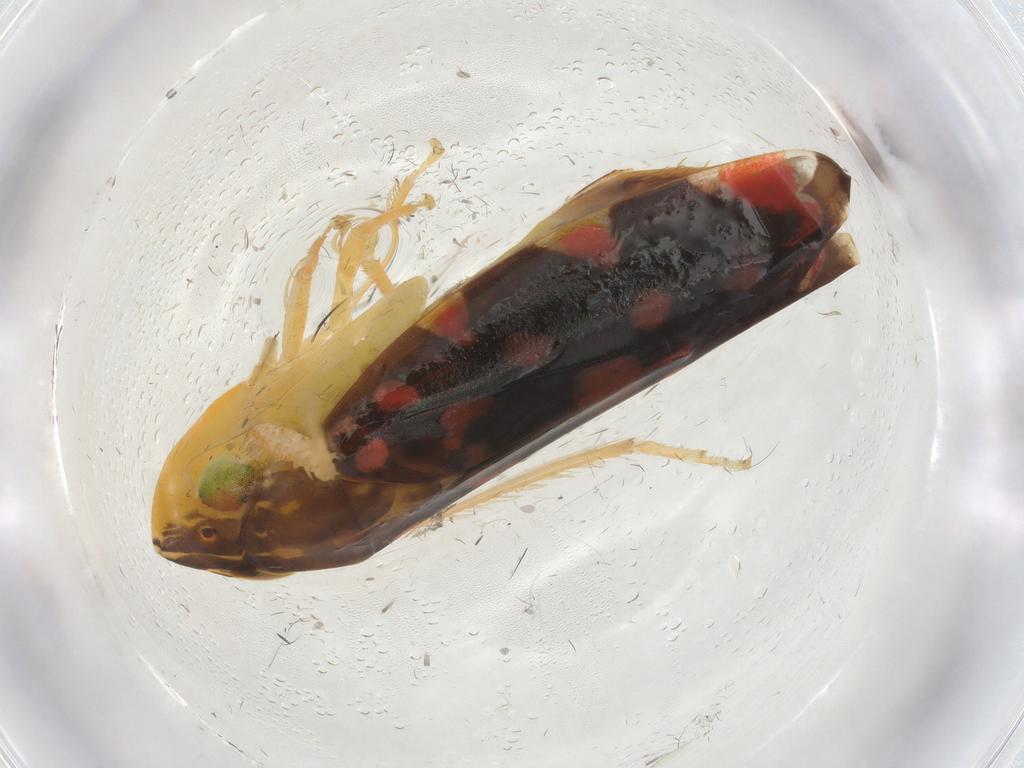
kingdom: Animalia
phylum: Arthropoda
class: Insecta
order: Hemiptera
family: Cicadellidae
